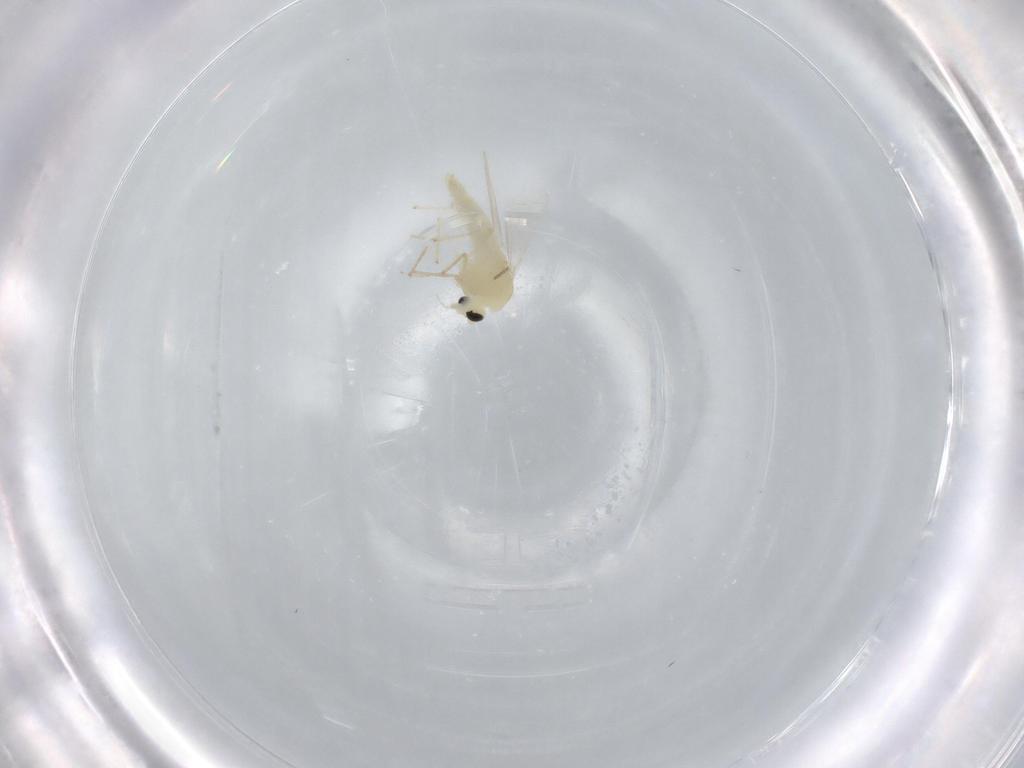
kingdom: Animalia
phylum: Arthropoda
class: Insecta
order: Diptera
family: Chironomidae
